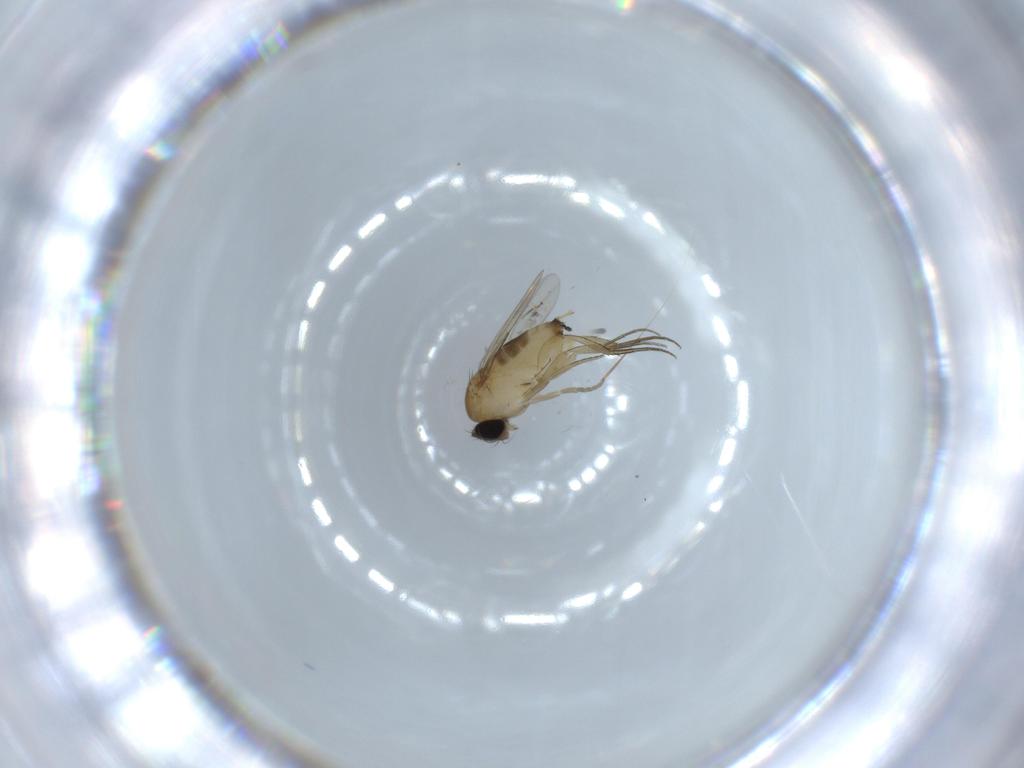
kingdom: Animalia
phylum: Arthropoda
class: Insecta
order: Diptera
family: Phoridae
